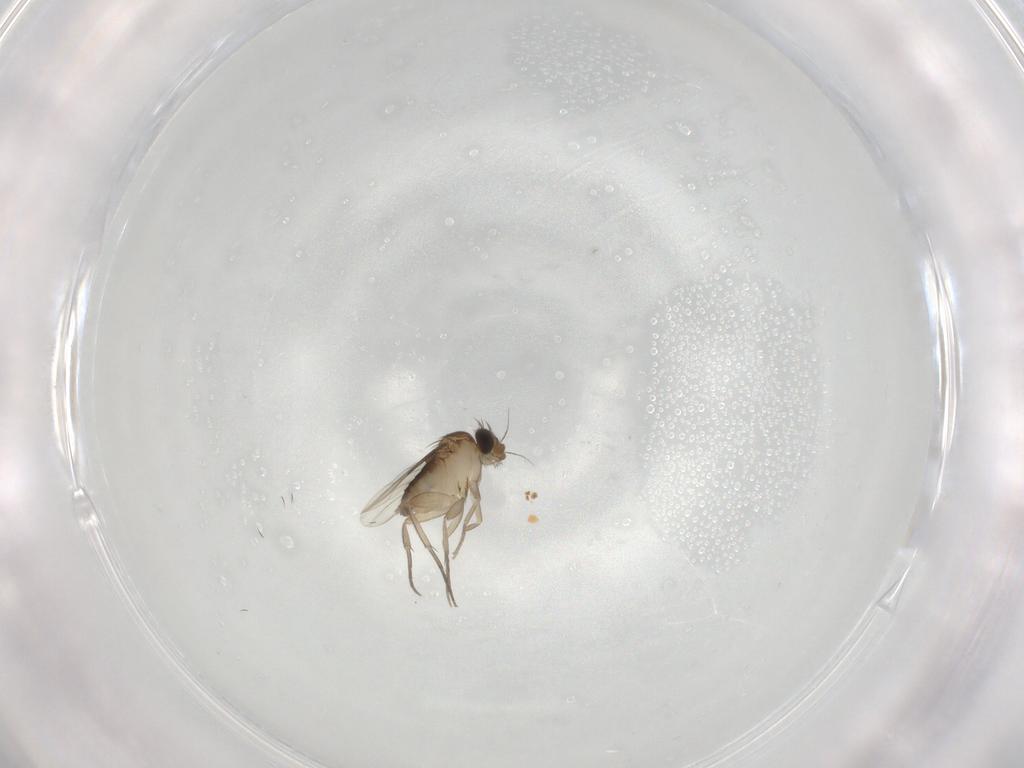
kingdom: Animalia
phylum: Arthropoda
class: Insecta
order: Diptera
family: Phoridae
